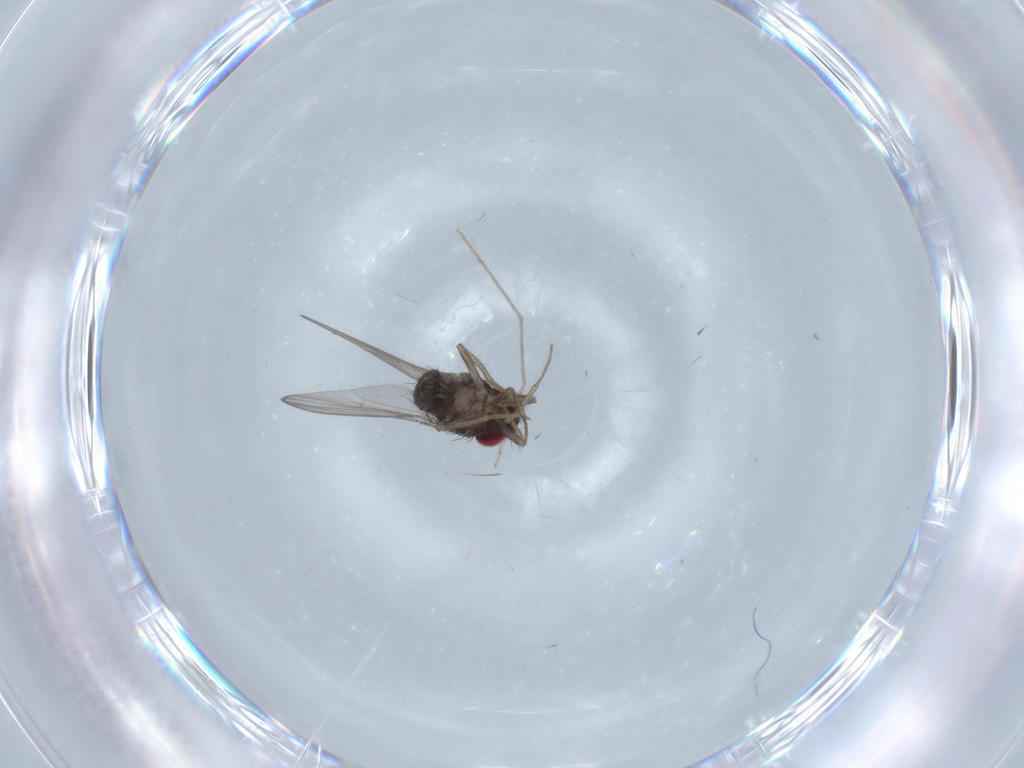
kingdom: Animalia
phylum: Arthropoda
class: Insecta
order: Diptera
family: Drosophilidae
